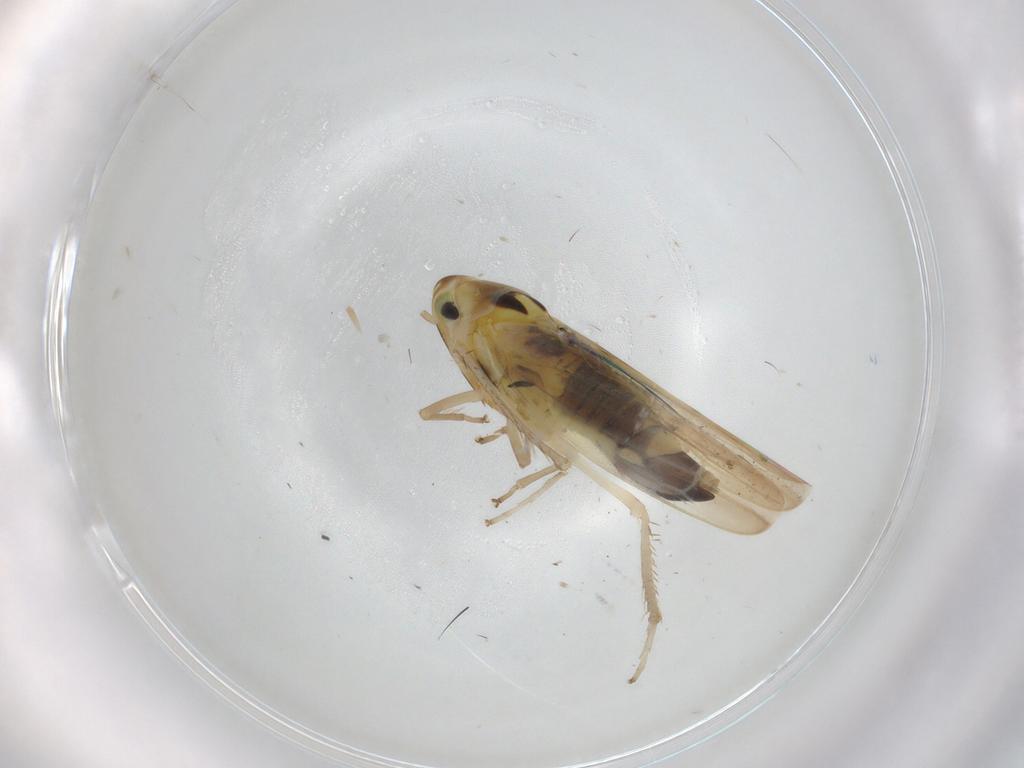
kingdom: Animalia
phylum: Arthropoda
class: Insecta
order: Hemiptera
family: Cicadellidae
